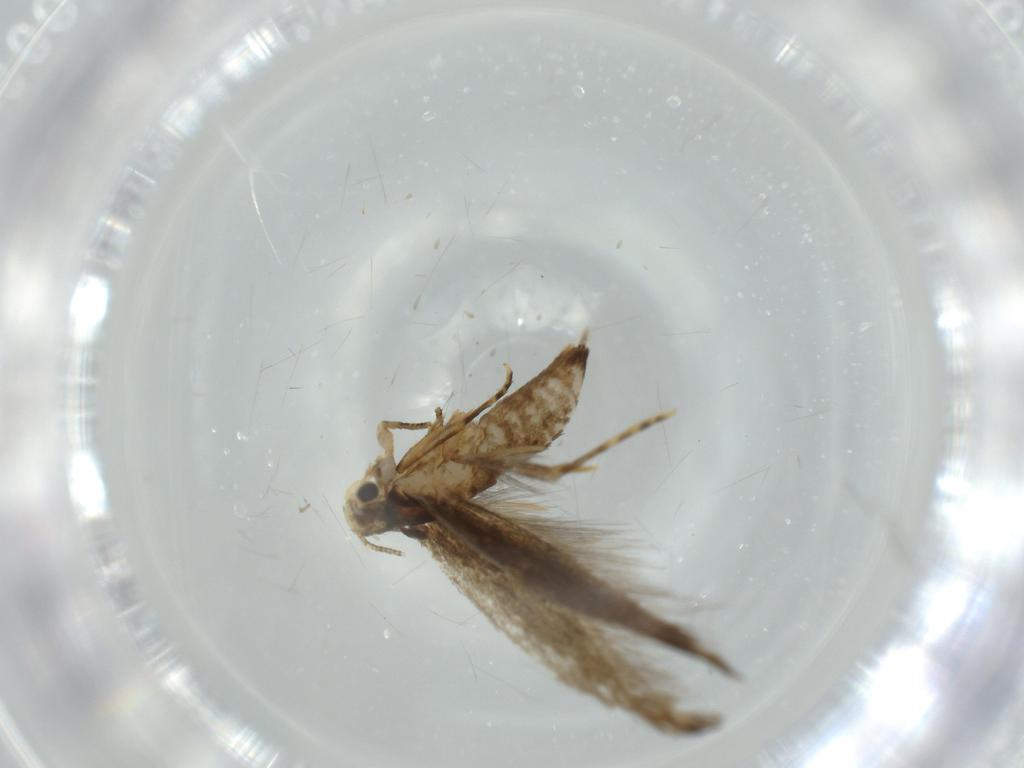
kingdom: Animalia
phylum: Arthropoda
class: Insecta
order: Lepidoptera
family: Tineidae
